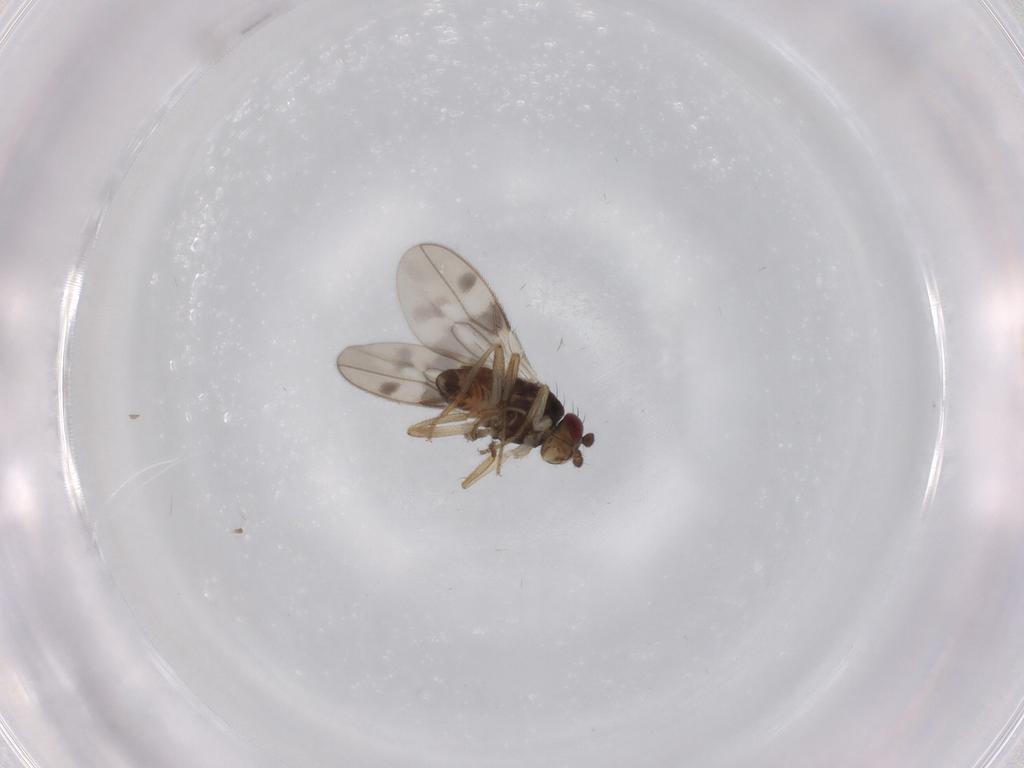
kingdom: Animalia
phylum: Arthropoda
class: Insecta
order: Diptera
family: Sphaeroceridae
